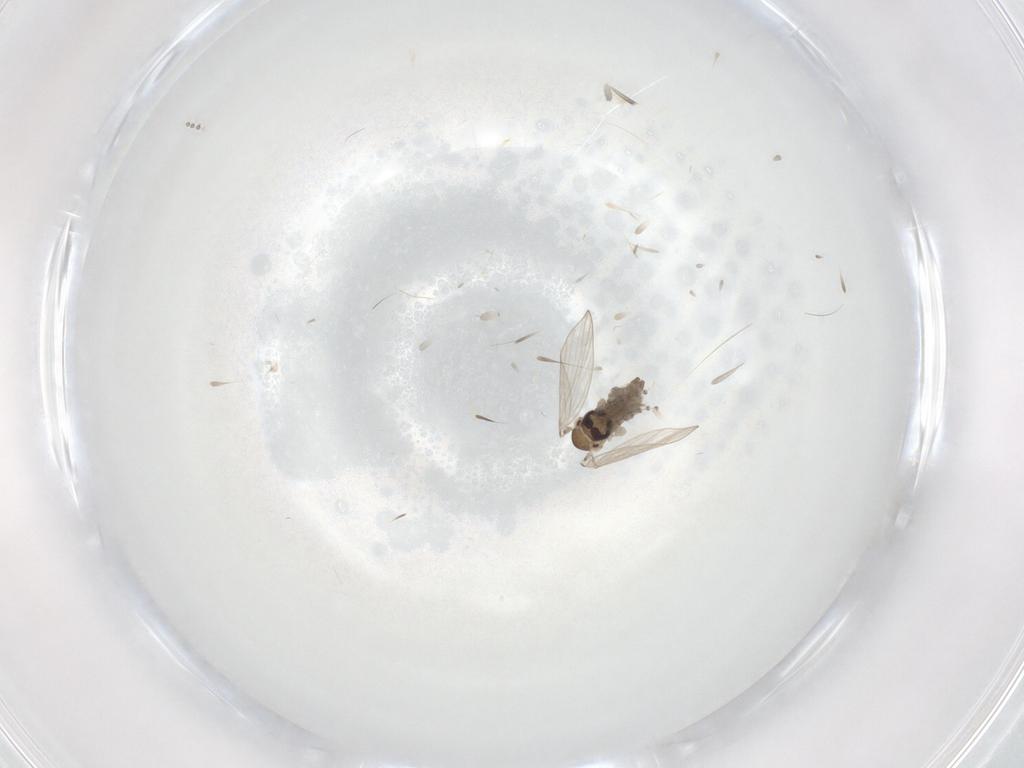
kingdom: Animalia
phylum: Arthropoda
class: Insecta
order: Diptera
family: Psychodidae
